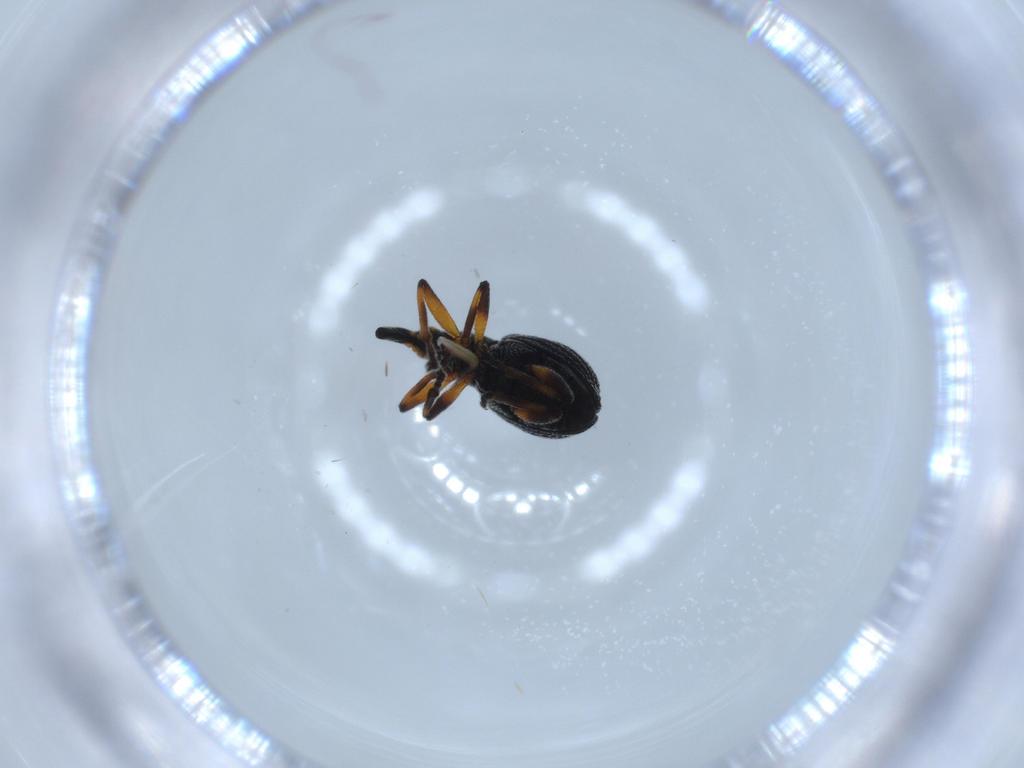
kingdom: Animalia
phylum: Arthropoda
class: Insecta
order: Coleoptera
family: Brentidae
